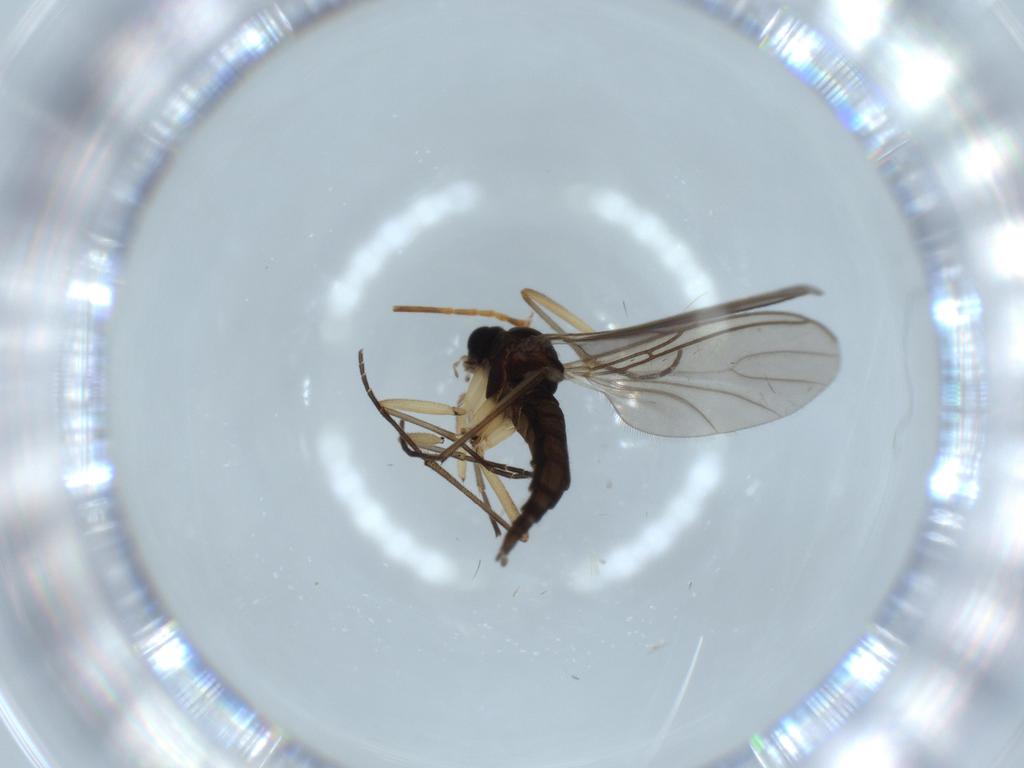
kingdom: Animalia
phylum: Arthropoda
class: Insecta
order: Diptera
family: Sciaridae
